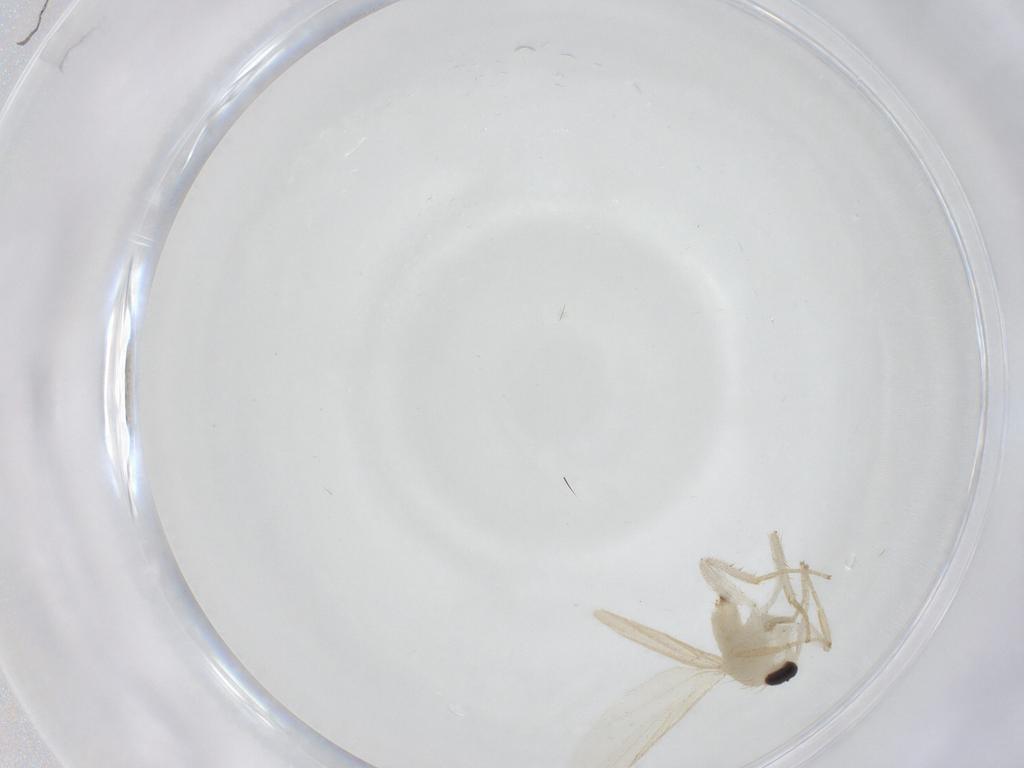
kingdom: Animalia
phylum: Arthropoda
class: Insecta
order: Diptera
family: Hybotidae
